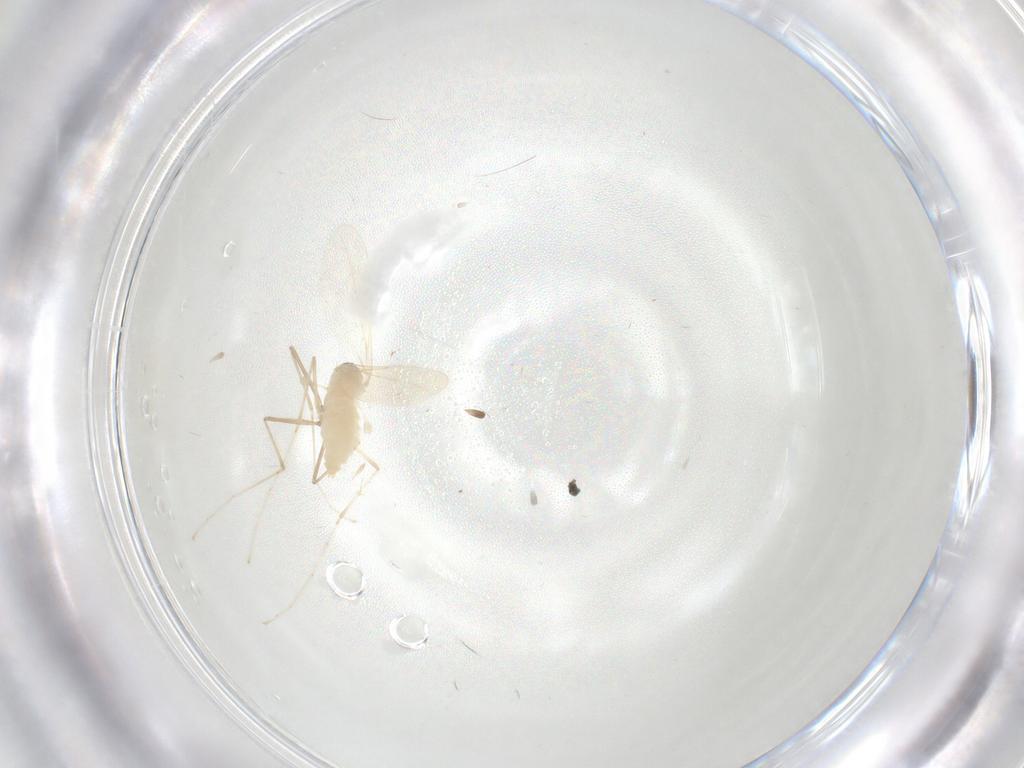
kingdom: Animalia
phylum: Arthropoda
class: Insecta
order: Diptera
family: Cecidomyiidae
